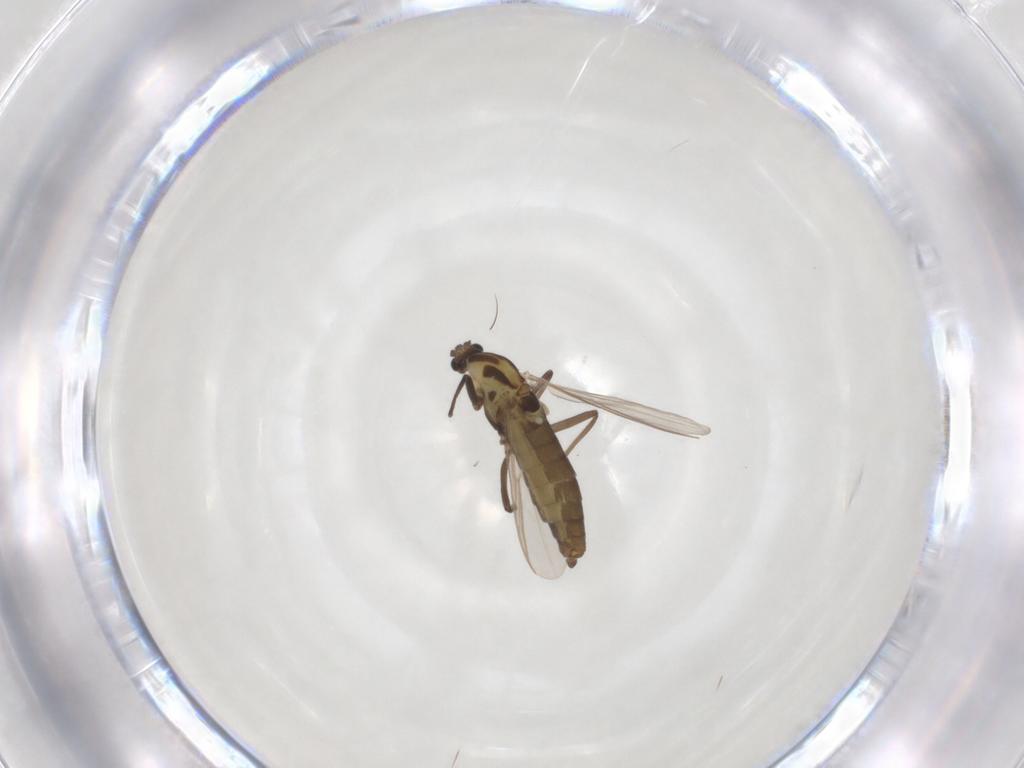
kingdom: Animalia
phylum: Arthropoda
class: Insecta
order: Diptera
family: Chironomidae
